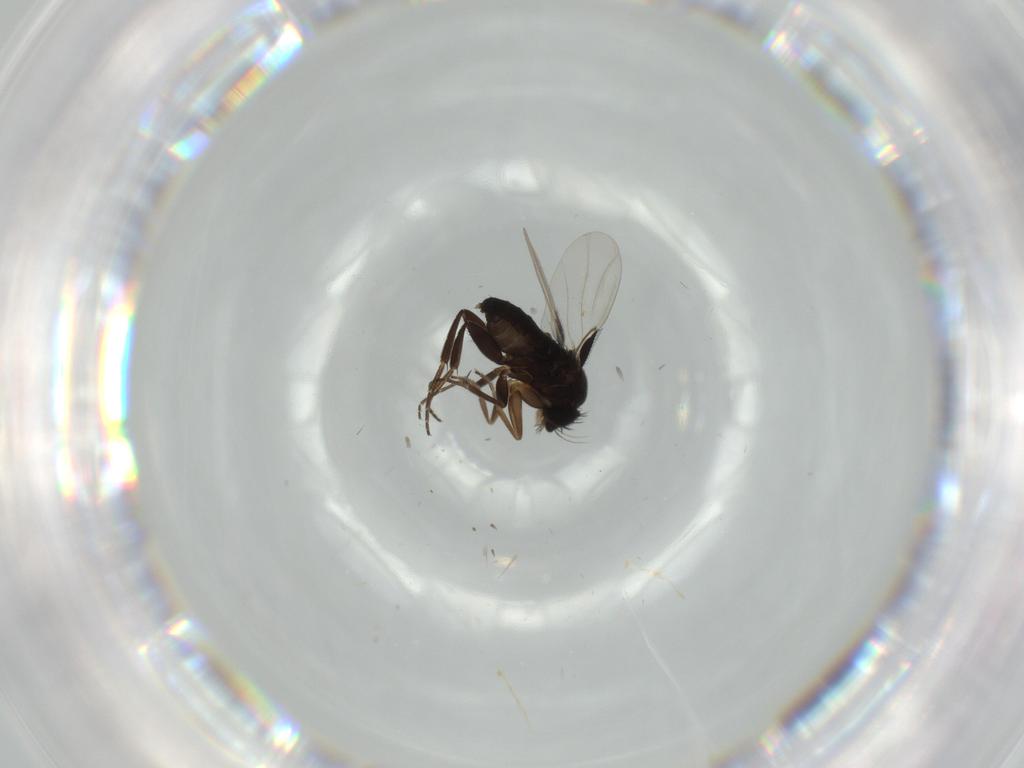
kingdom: Animalia
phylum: Arthropoda
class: Insecta
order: Diptera
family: Phoridae
